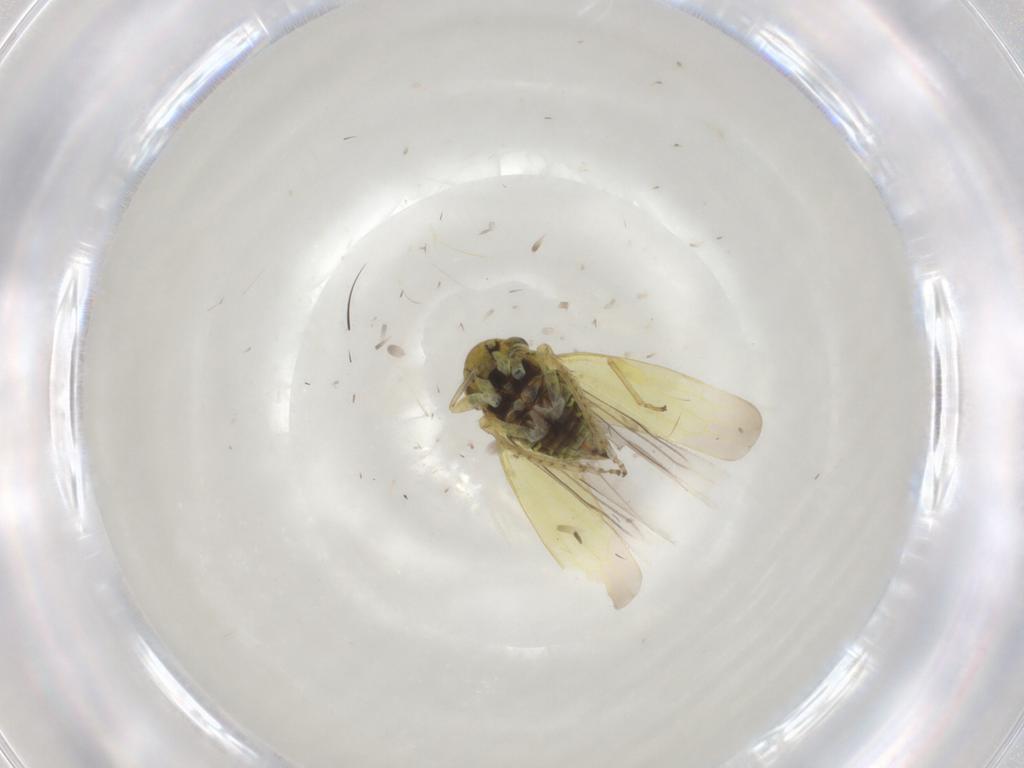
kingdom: Animalia
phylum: Arthropoda
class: Insecta
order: Hemiptera
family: Cicadellidae
